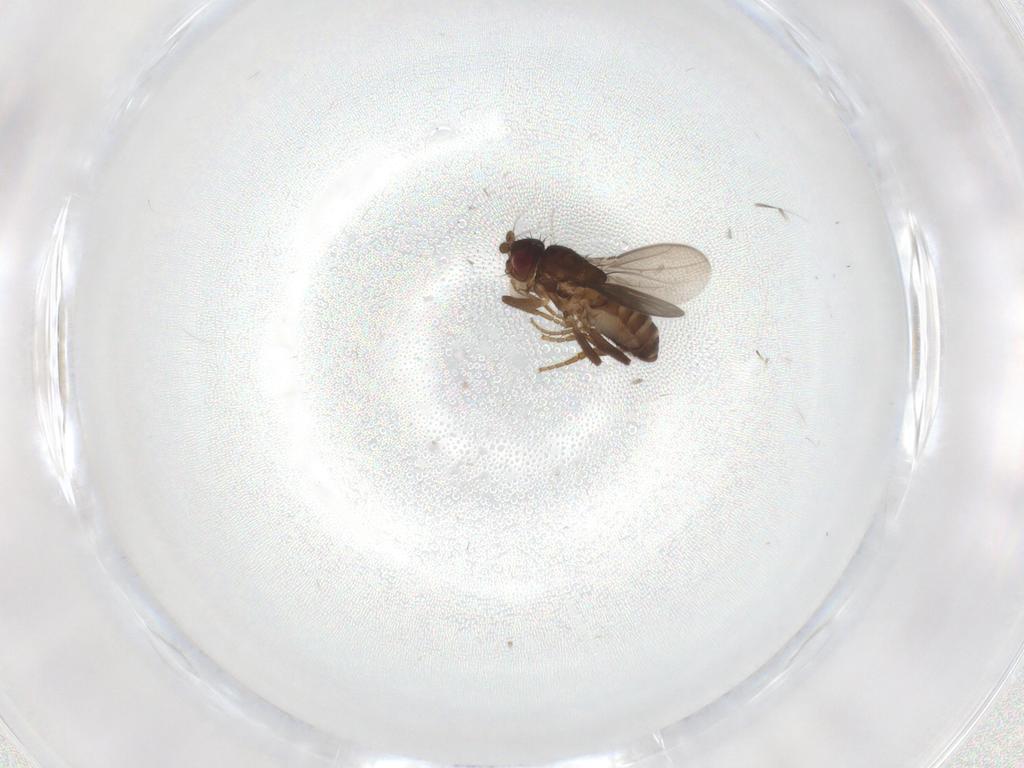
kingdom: Animalia
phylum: Arthropoda
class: Insecta
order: Diptera
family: Sphaeroceridae
